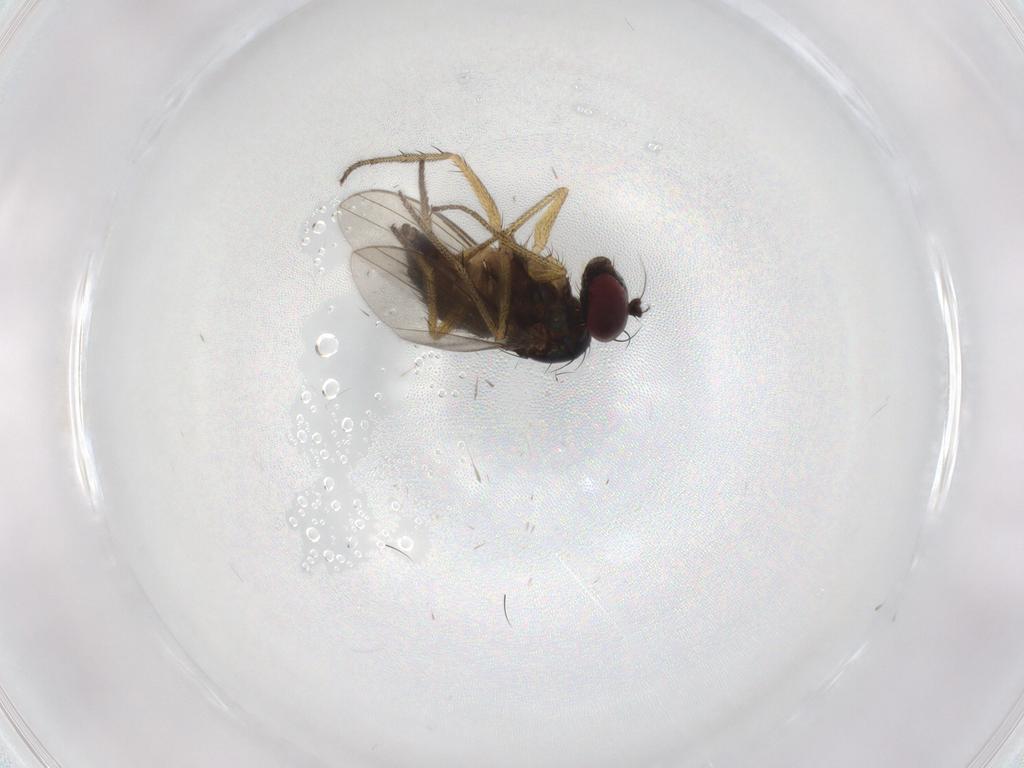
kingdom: Animalia
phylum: Arthropoda
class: Insecta
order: Diptera
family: Dolichopodidae
